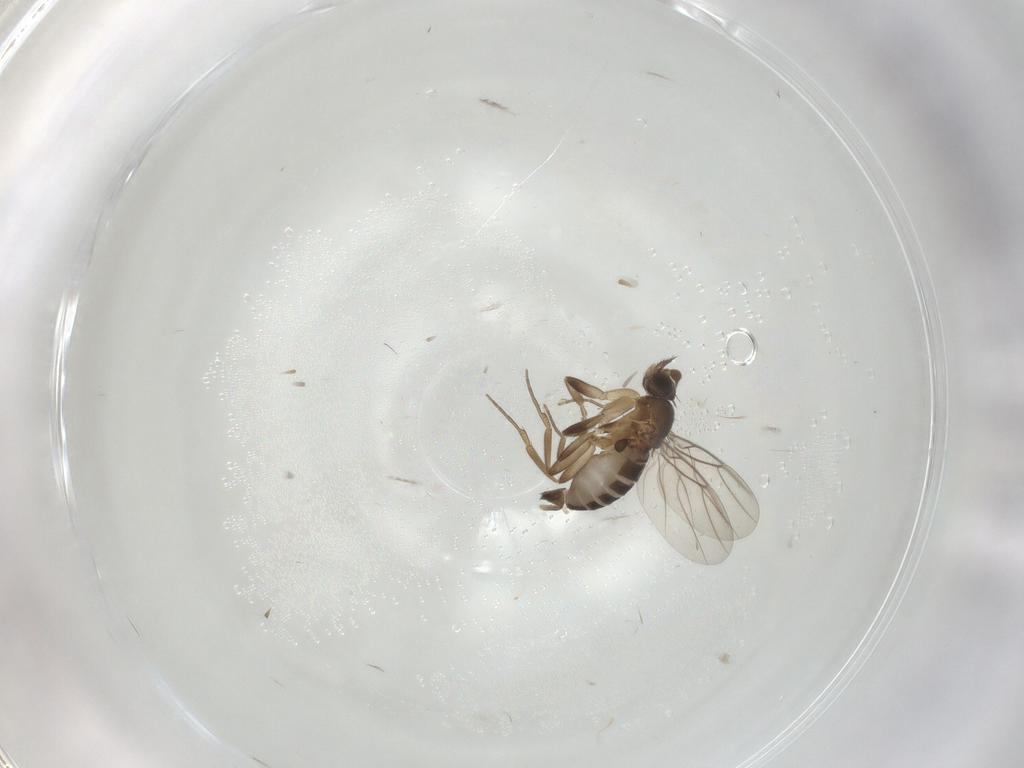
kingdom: Animalia
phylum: Arthropoda
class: Insecta
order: Diptera
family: Phoridae
